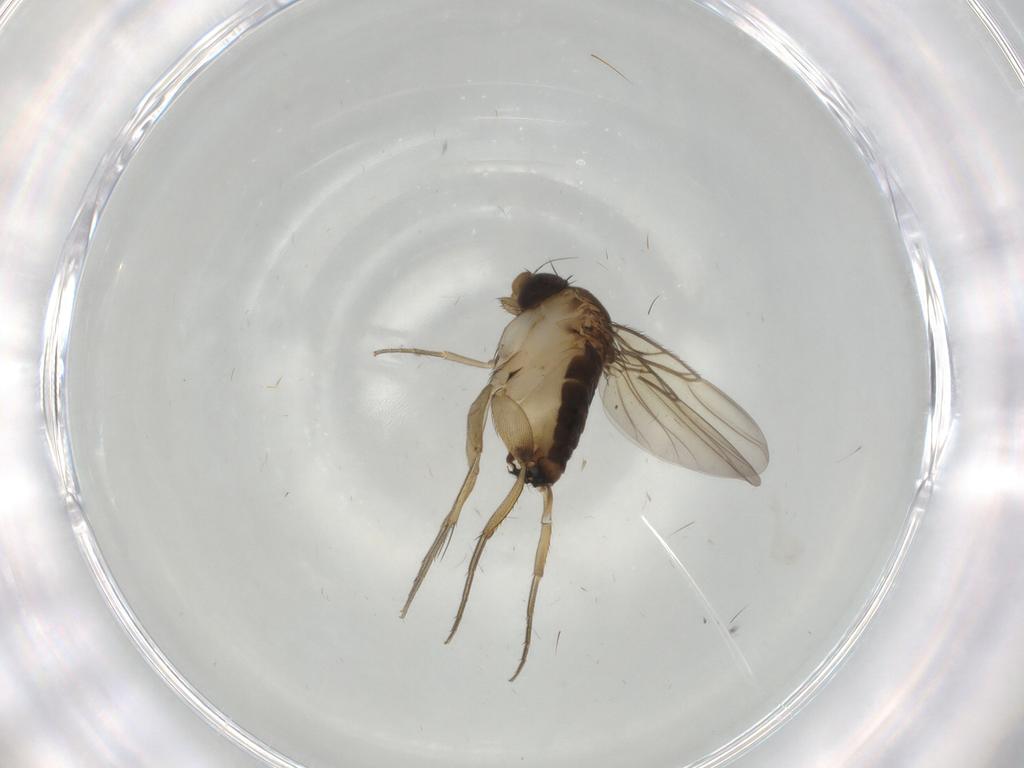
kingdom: Animalia
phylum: Arthropoda
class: Insecta
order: Diptera
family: Phoridae
